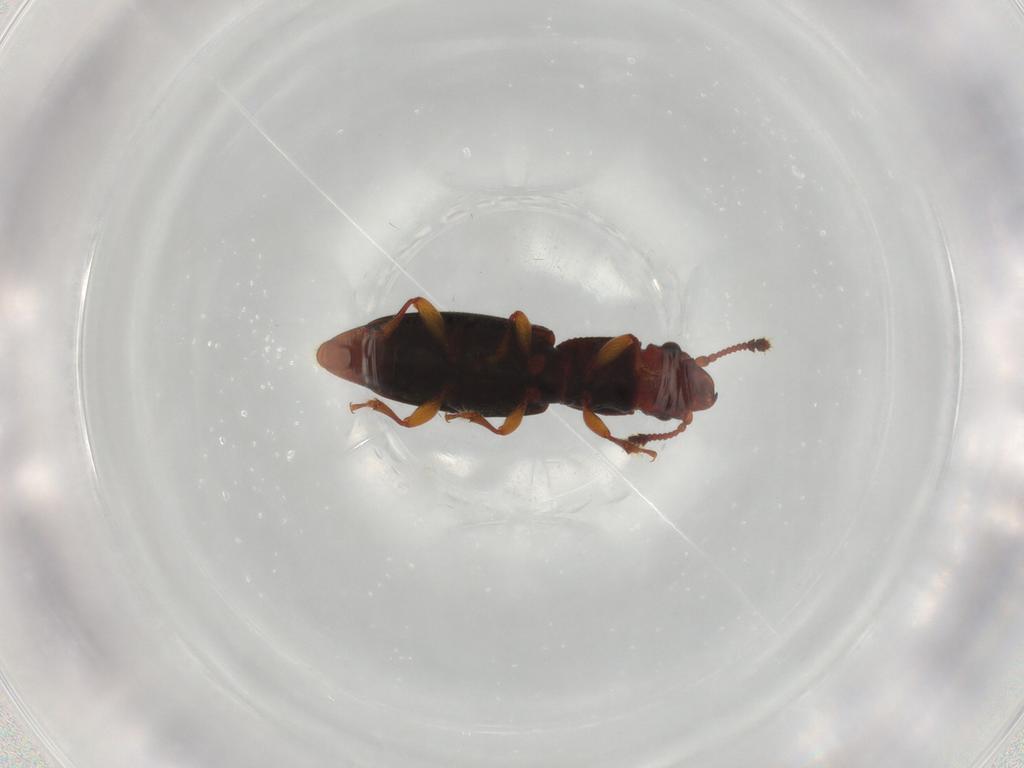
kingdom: Animalia
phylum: Arthropoda
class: Insecta
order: Coleoptera
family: Monotomidae
